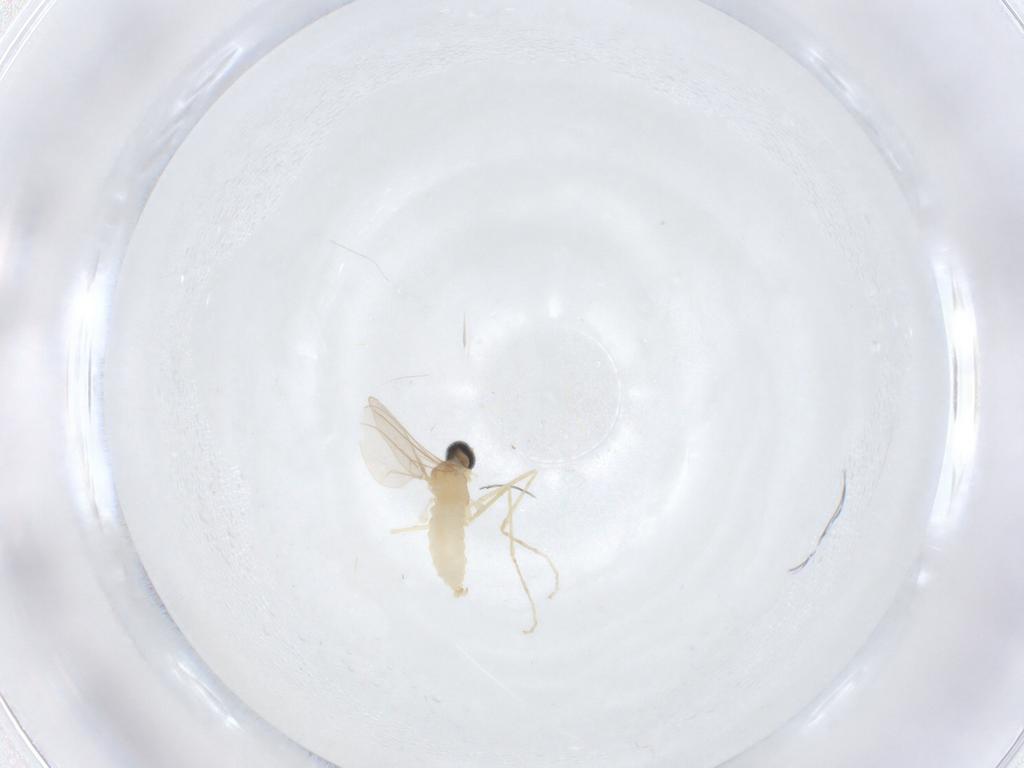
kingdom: Animalia
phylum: Arthropoda
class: Insecta
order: Diptera
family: Cecidomyiidae
